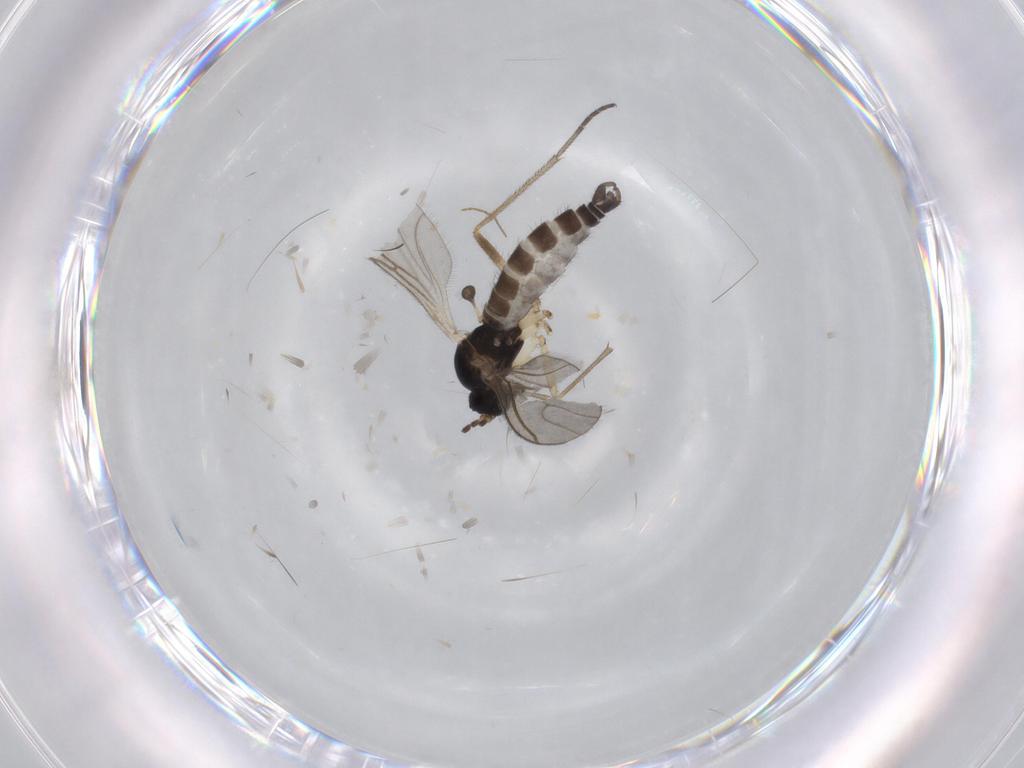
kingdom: Animalia
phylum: Arthropoda
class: Insecta
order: Diptera
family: Sciaridae
